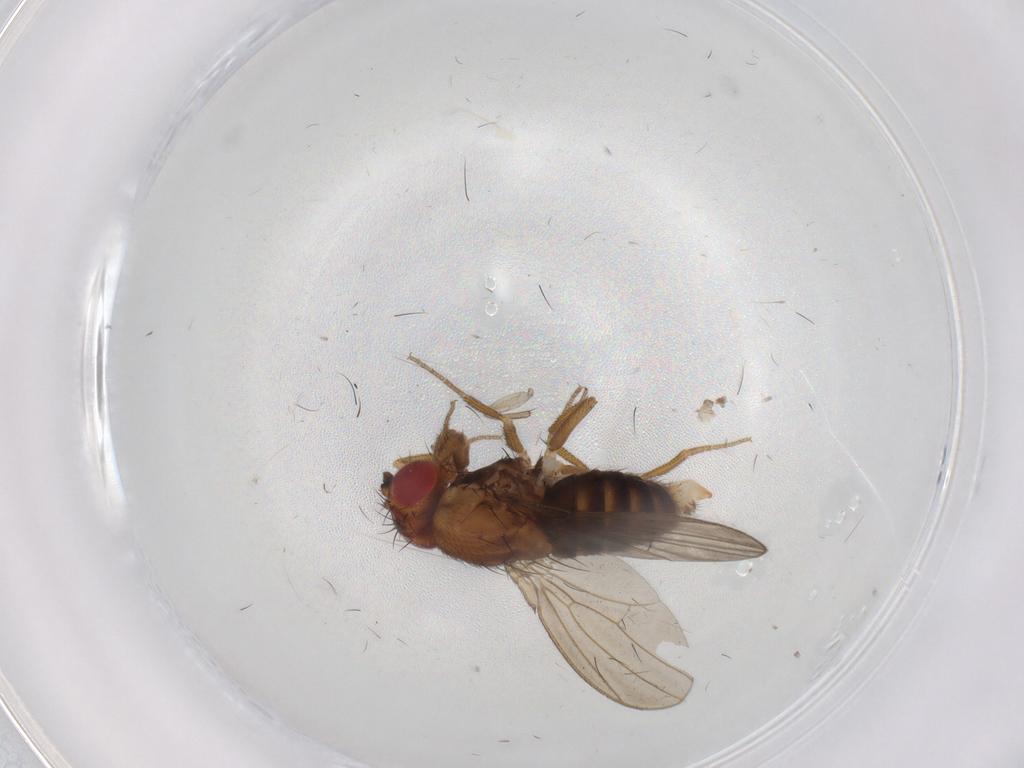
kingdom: Animalia
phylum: Arthropoda
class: Insecta
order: Diptera
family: Drosophilidae
